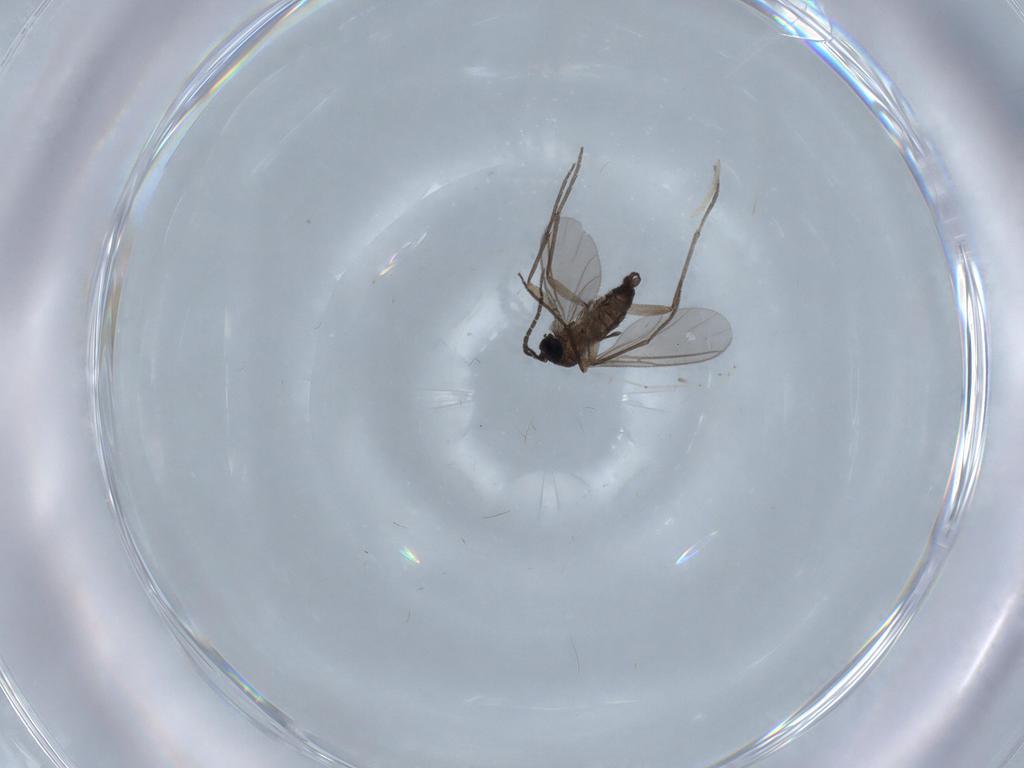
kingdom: Animalia
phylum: Arthropoda
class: Insecta
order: Diptera
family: Sciaridae
